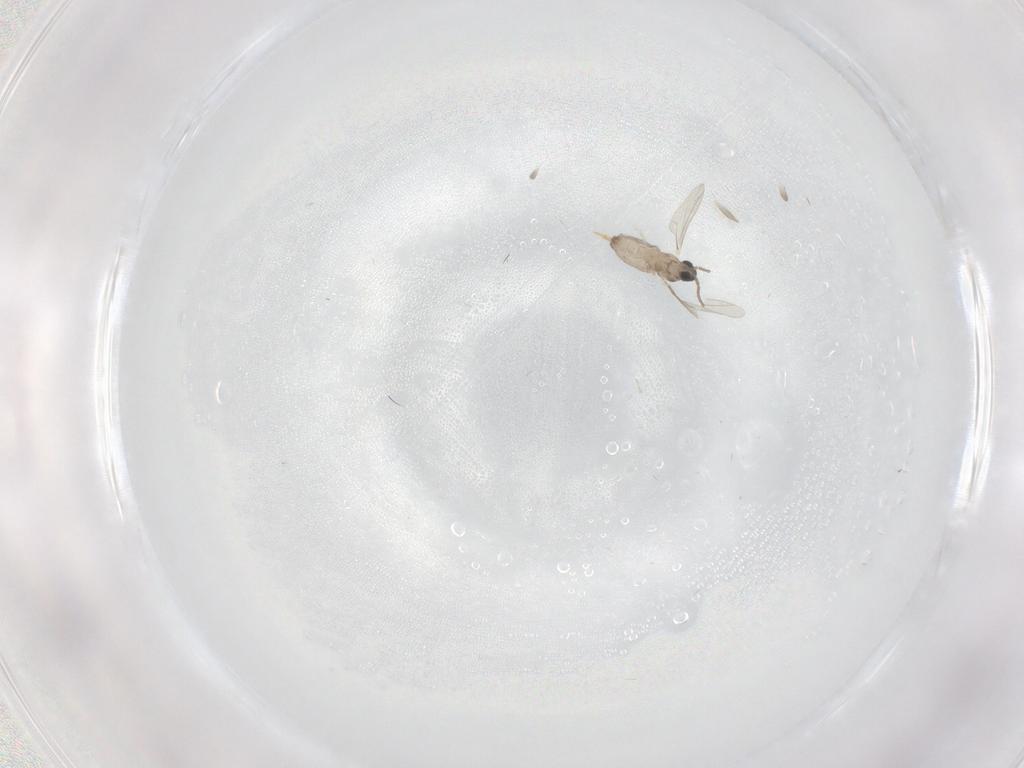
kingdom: Animalia
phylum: Arthropoda
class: Insecta
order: Diptera
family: Cecidomyiidae
